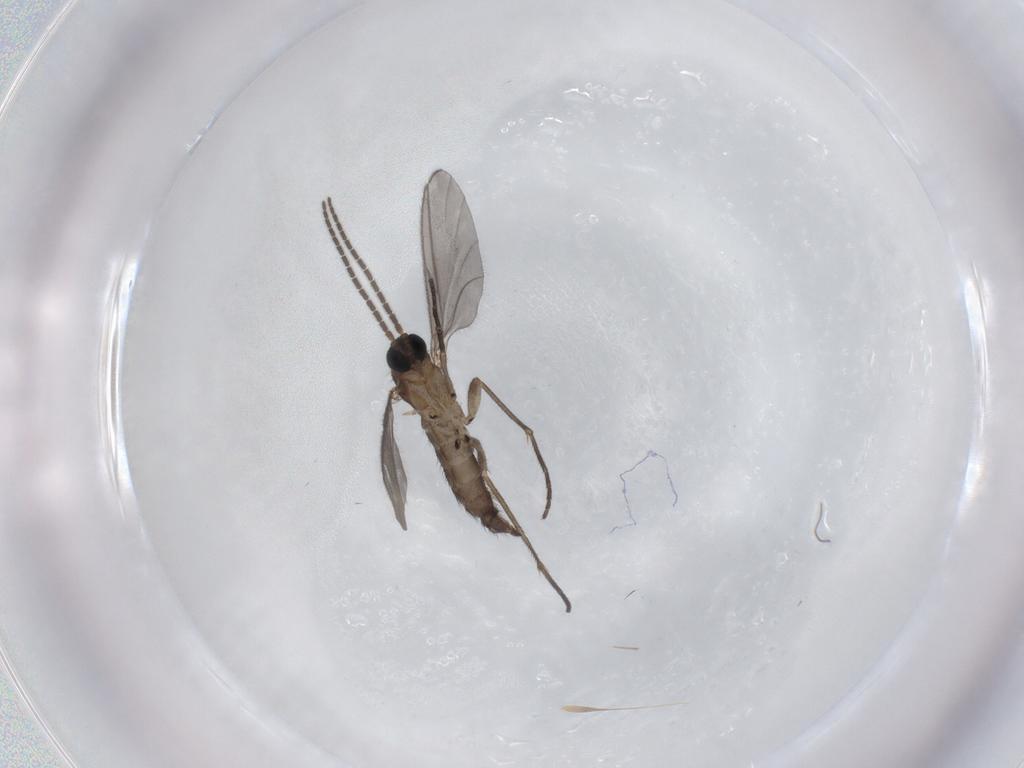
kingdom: Animalia
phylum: Arthropoda
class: Insecta
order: Diptera
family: Sciaridae
